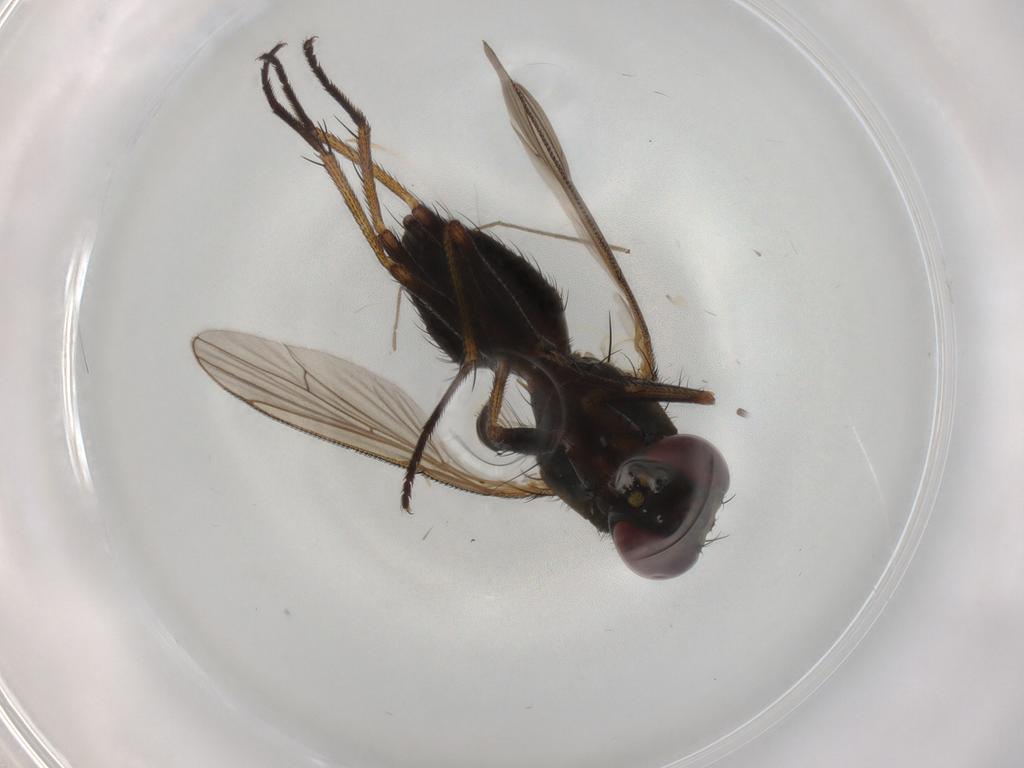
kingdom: Animalia
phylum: Arthropoda
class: Insecta
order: Diptera
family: Muscidae
